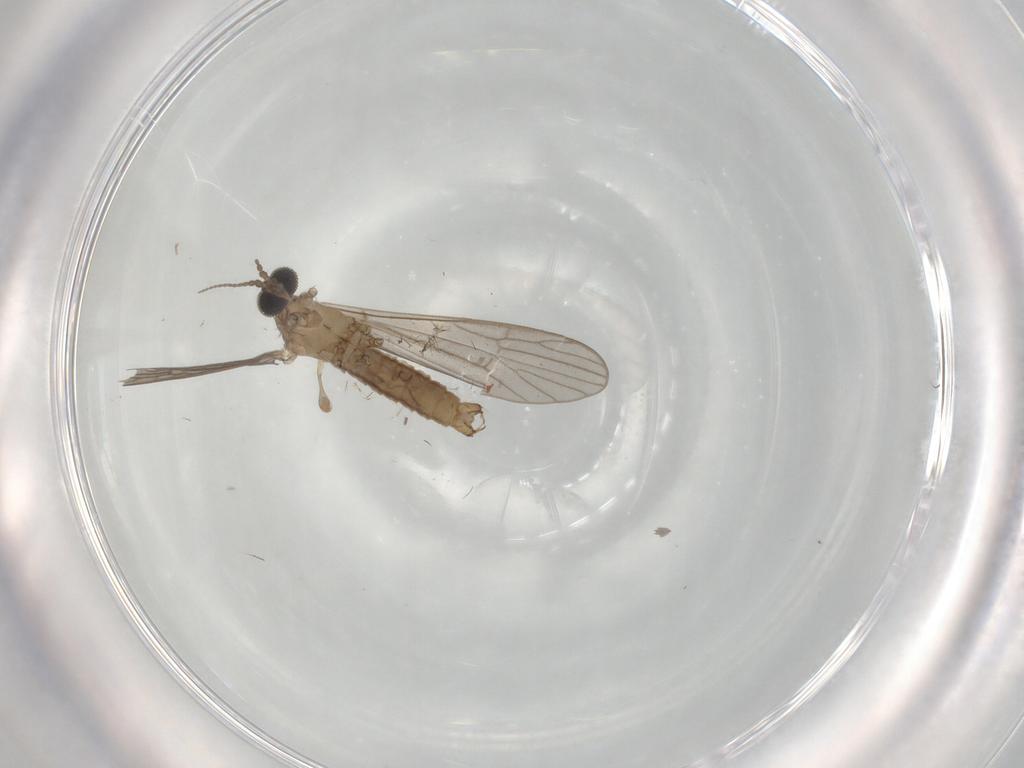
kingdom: Animalia
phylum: Arthropoda
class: Insecta
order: Diptera
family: Limoniidae
